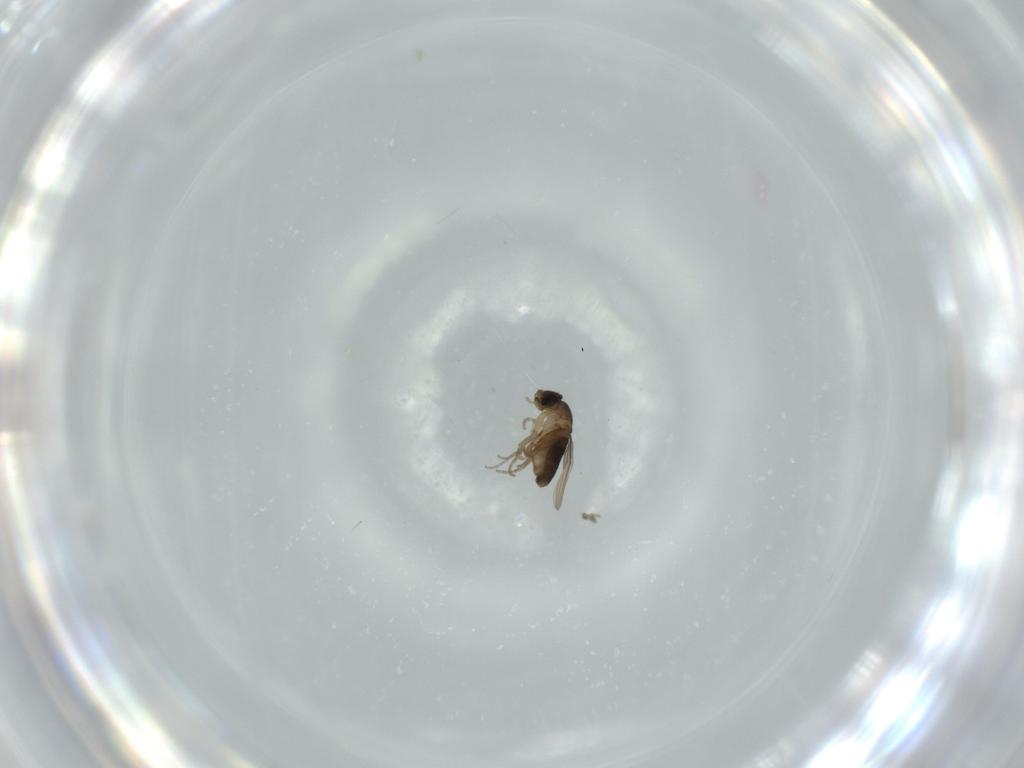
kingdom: Animalia
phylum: Arthropoda
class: Insecta
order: Diptera
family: Phoridae
